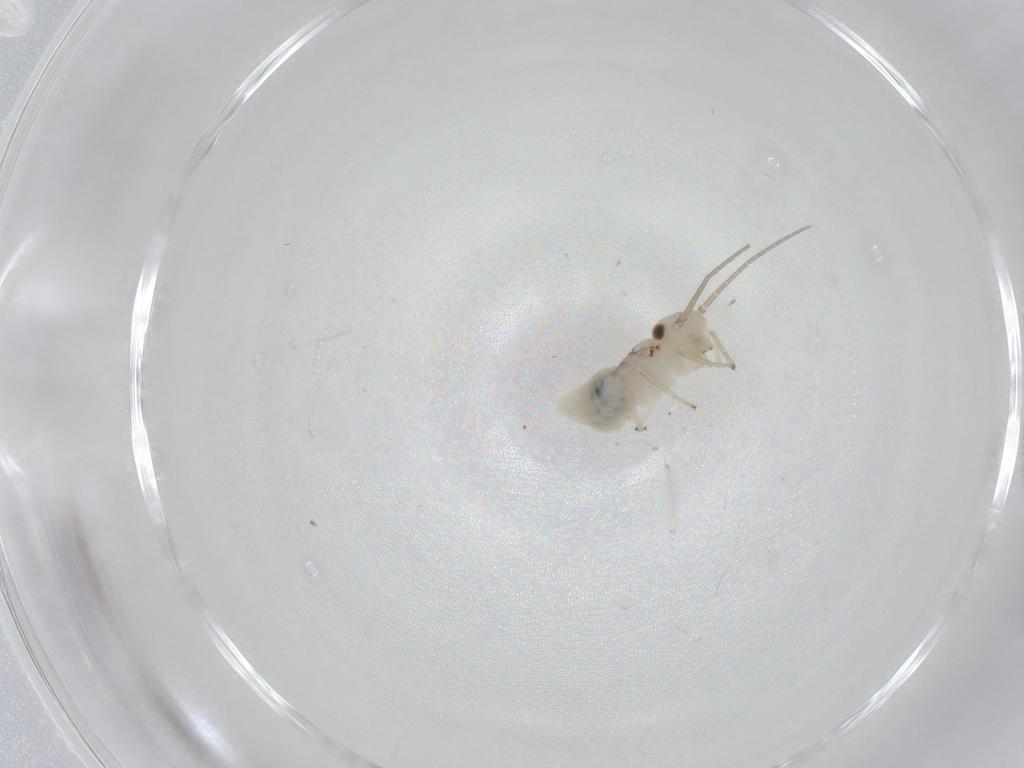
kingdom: Animalia
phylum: Arthropoda
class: Insecta
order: Psocodea
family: Caeciliusidae
